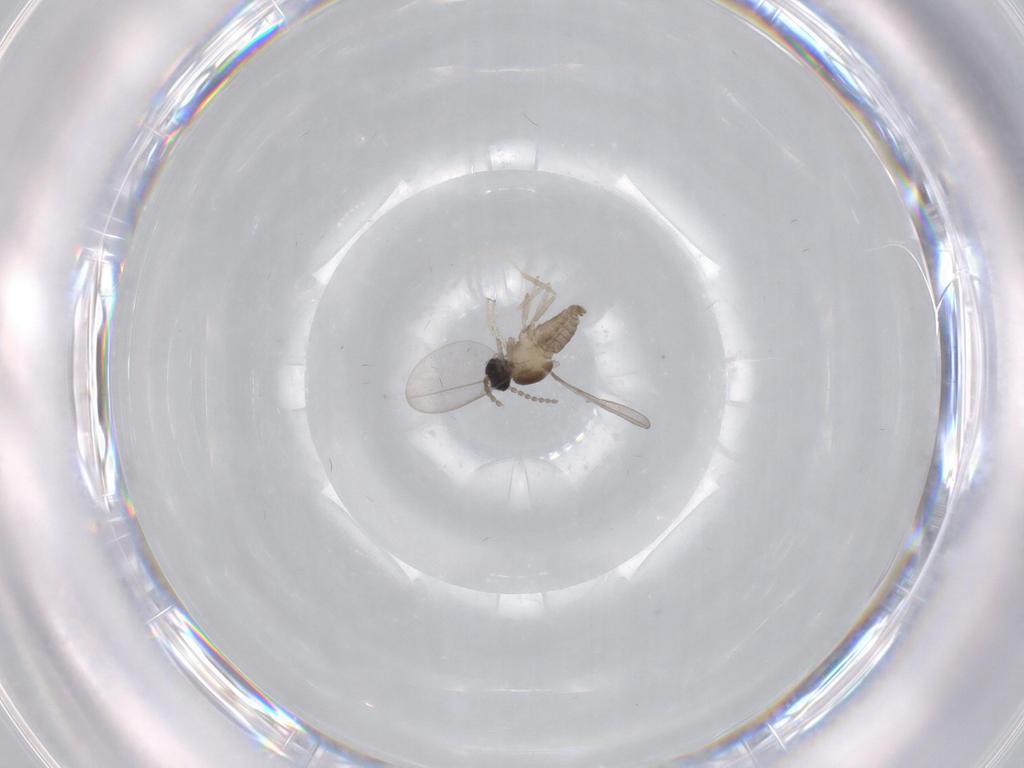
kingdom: Animalia
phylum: Arthropoda
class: Insecta
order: Diptera
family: Cecidomyiidae
